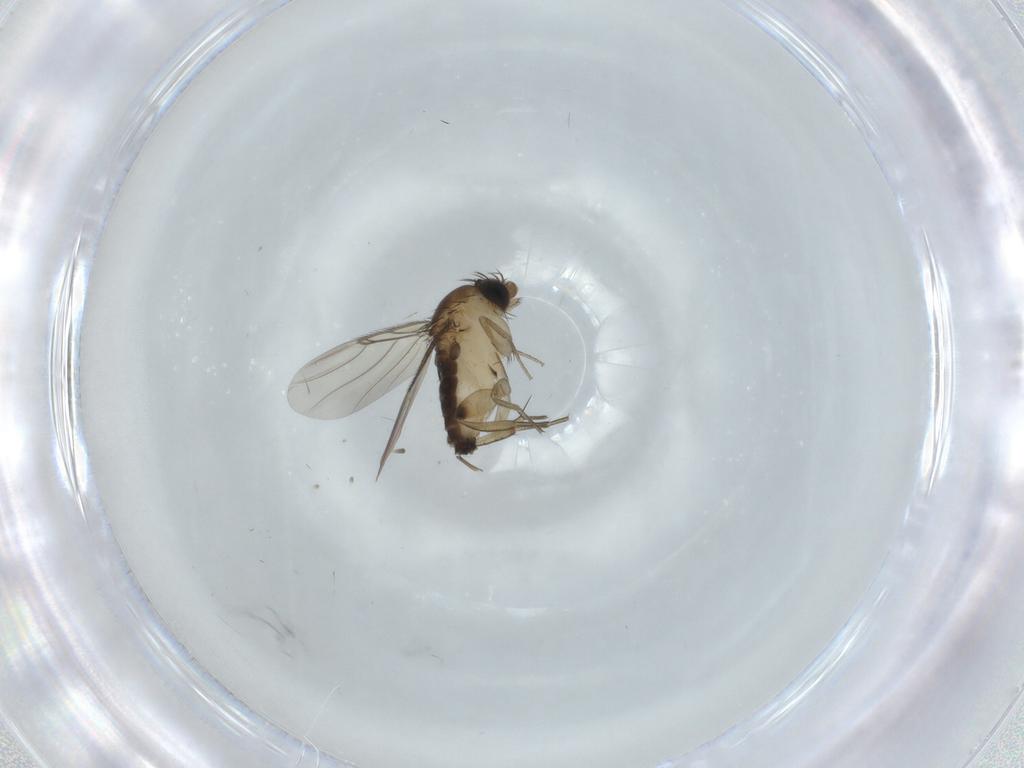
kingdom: Animalia
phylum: Arthropoda
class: Insecta
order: Diptera
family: Phoridae
